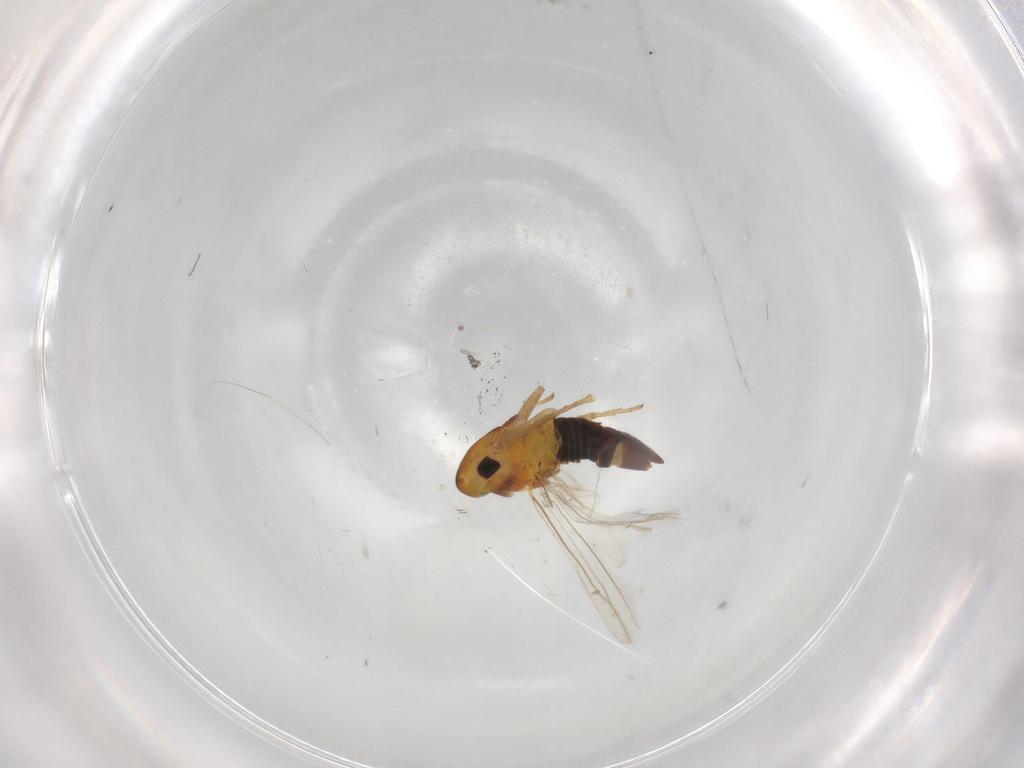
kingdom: Animalia
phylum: Arthropoda
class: Insecta
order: Hemiptera
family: Cicadellidae
